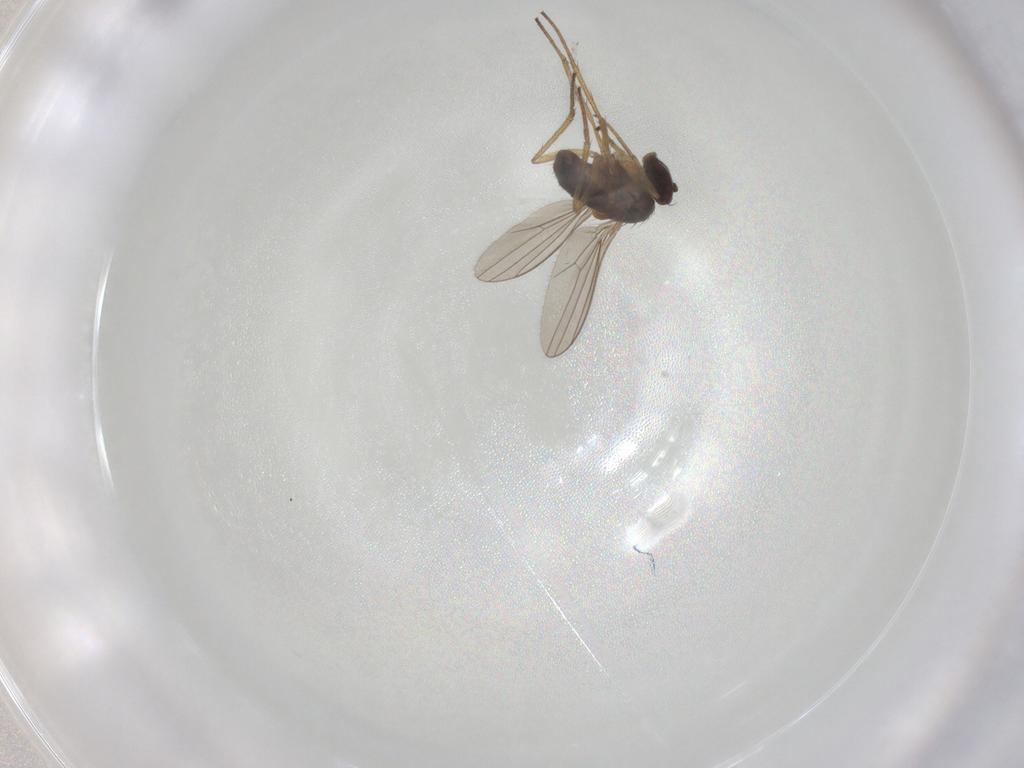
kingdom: Animalia
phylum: Arthropoda
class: Insecta
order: Diptera
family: Dolichopodidae
